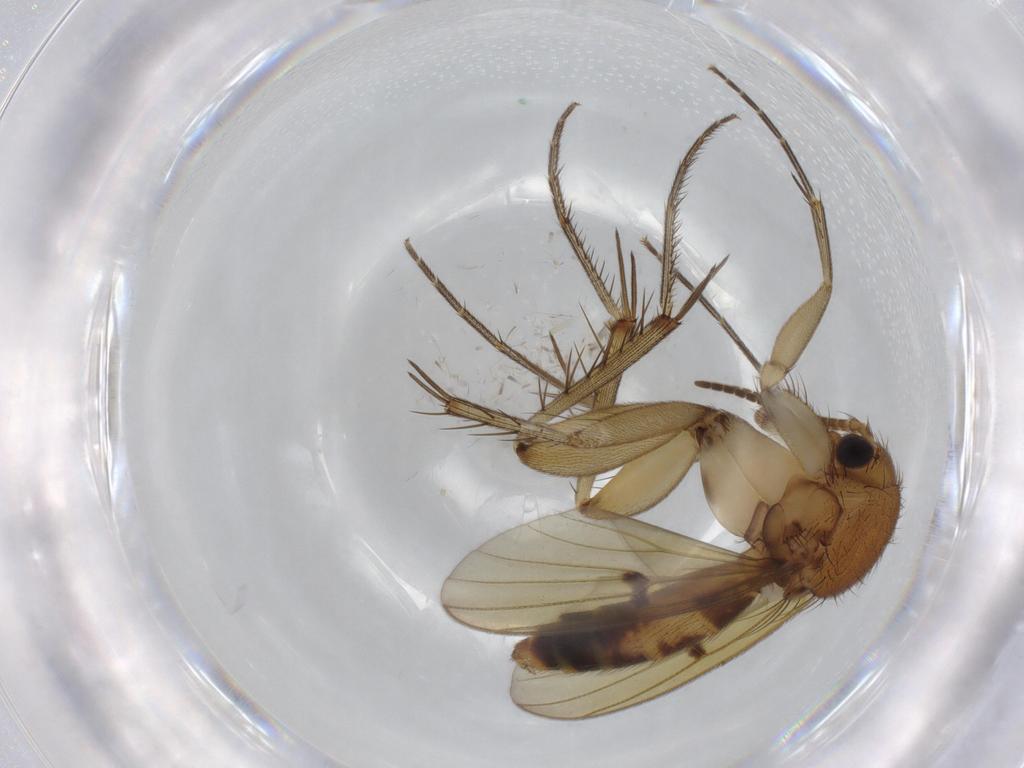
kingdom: Animalia
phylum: Arthropoda
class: Insecta
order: Diptera
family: Mycetophilidae
